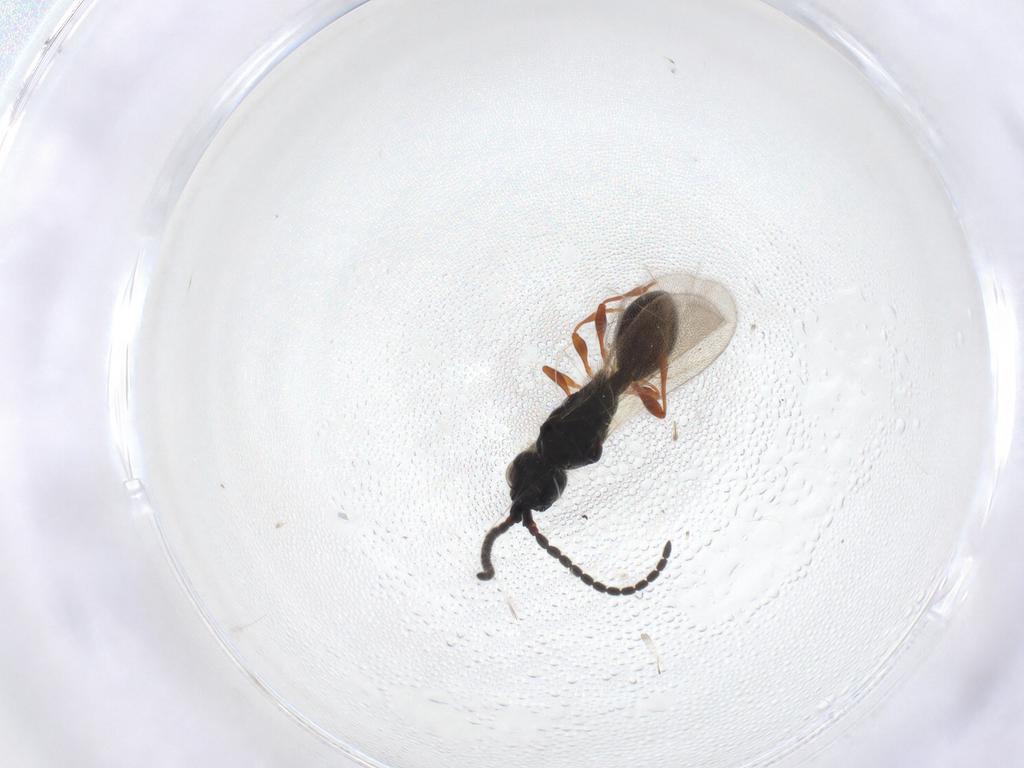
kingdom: Animalia
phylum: Arthropoda
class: Insecta
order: Hymenoptera
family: Diapriidae
